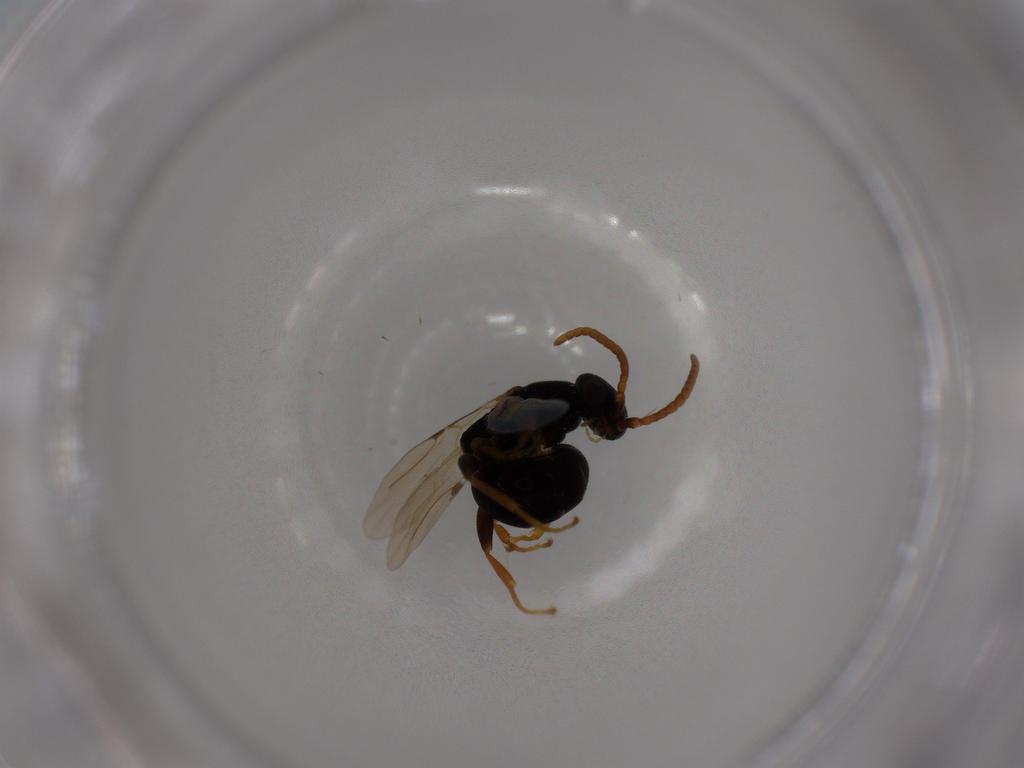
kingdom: Animalia
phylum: Arthropoda
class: Insecta
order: Hymenoptera
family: Bethylidae
